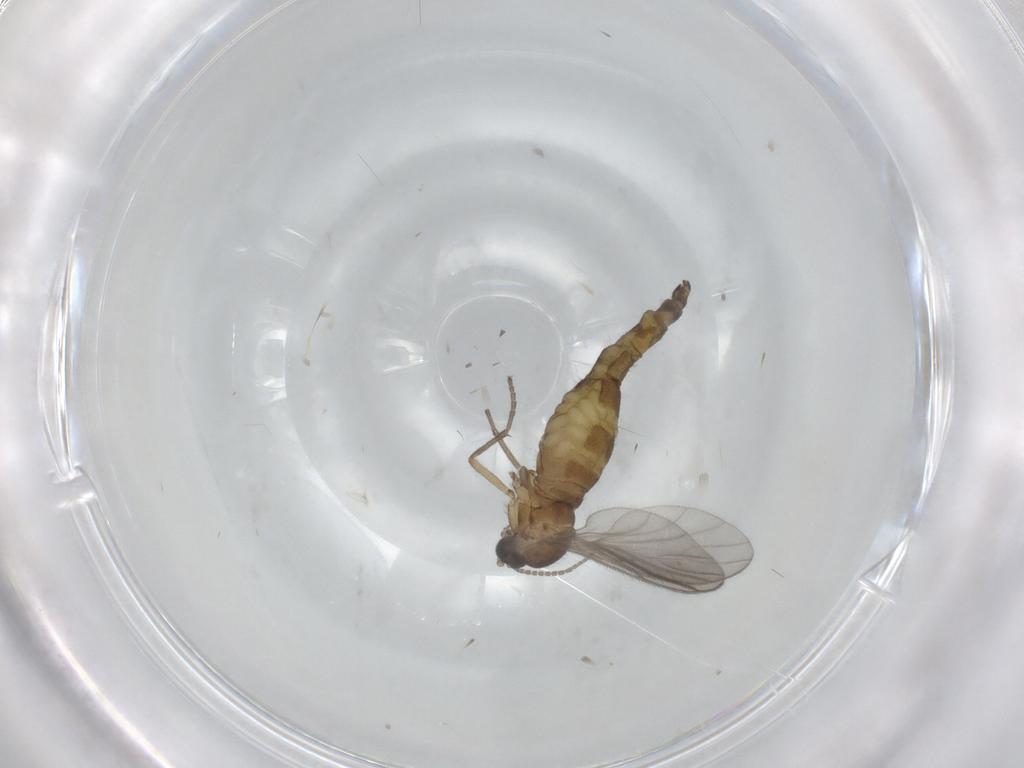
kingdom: Animalia
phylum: Arthropoda
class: Insecta
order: Diptera
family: Sciaridae
